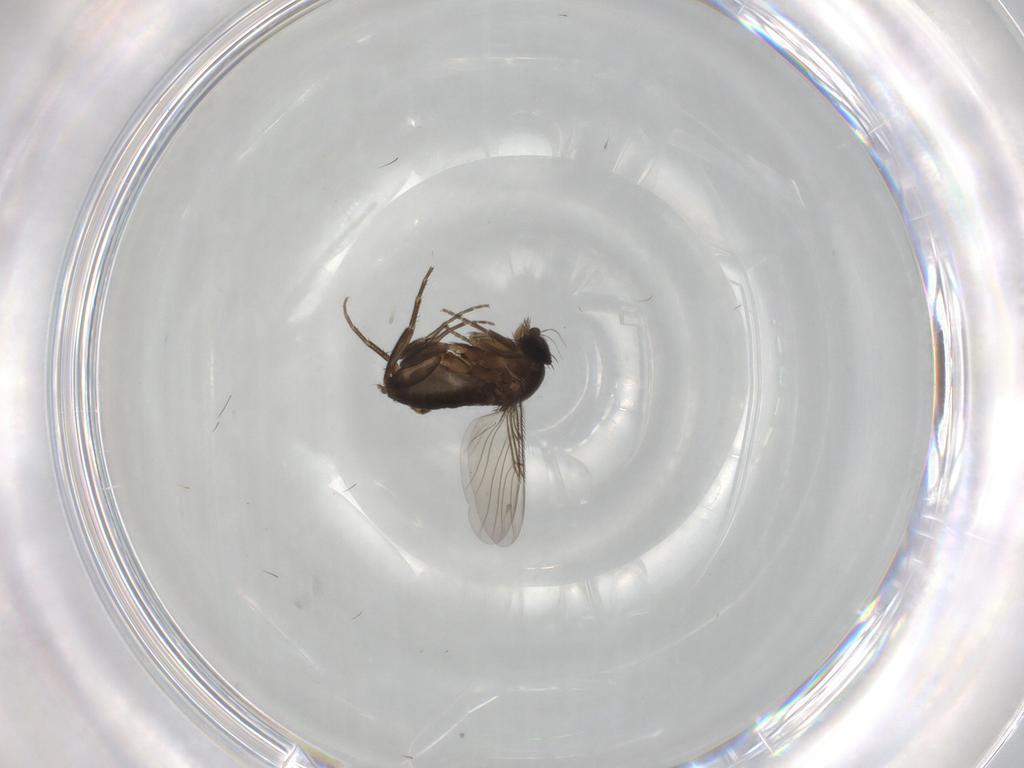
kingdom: Animalia
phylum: Arthropoda
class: Insecta
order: Diptera
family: Phoridae
